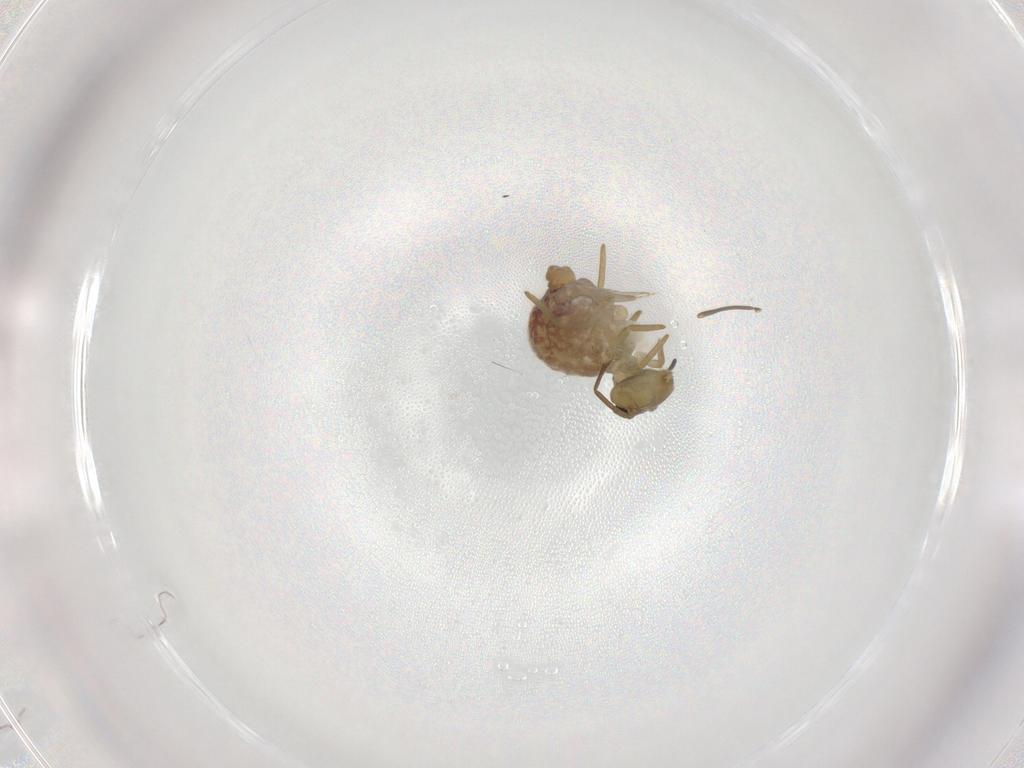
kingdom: Animalia
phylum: Arthropoda
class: Collembola
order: Symphypleona
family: Sminthuridae
